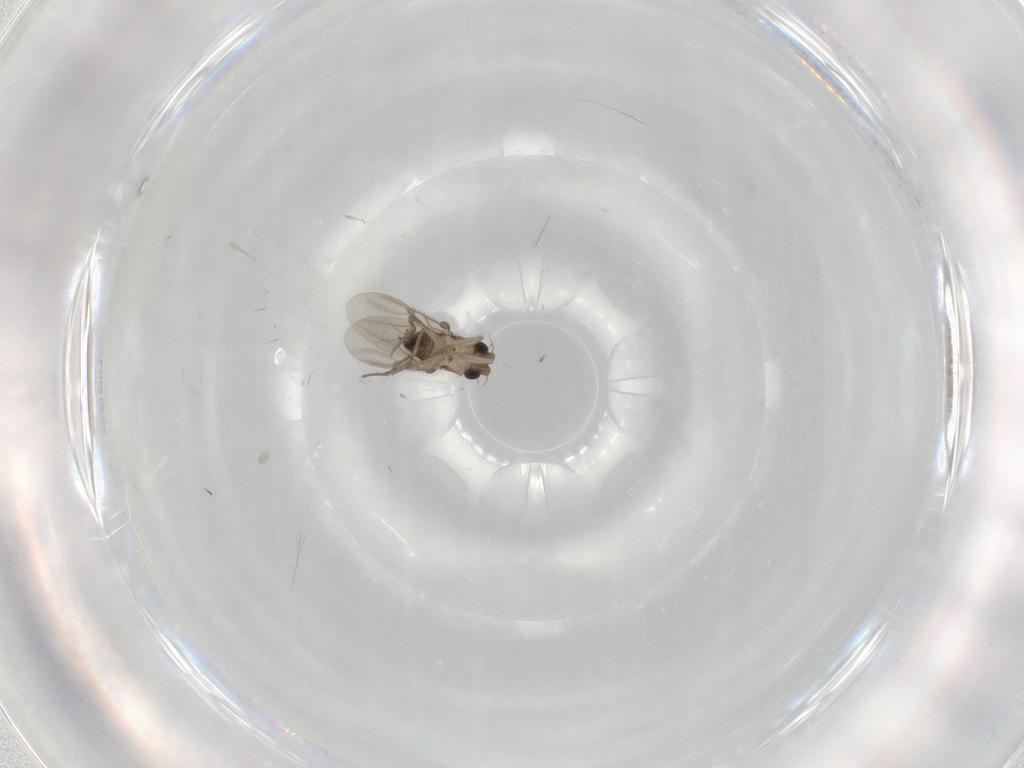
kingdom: Animalia
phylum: Arthropoda
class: Insecta
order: Diptera
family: Phoridae
